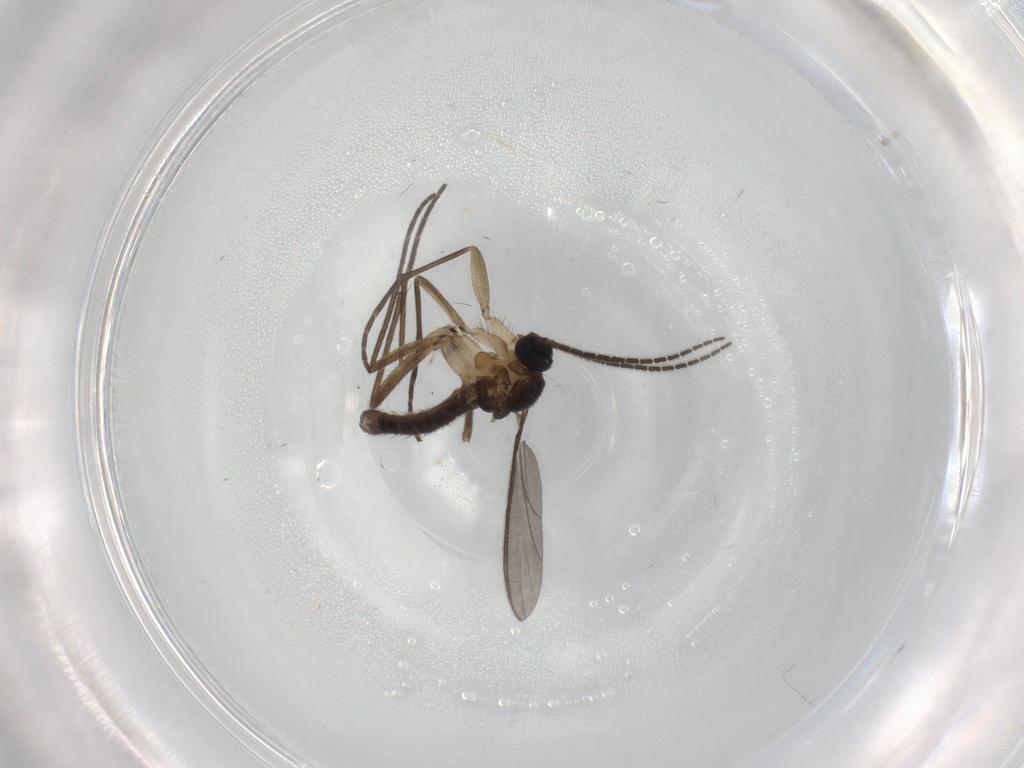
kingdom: Animalia
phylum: Arthropoda
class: Insecta
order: Diptera
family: Sciaridae
